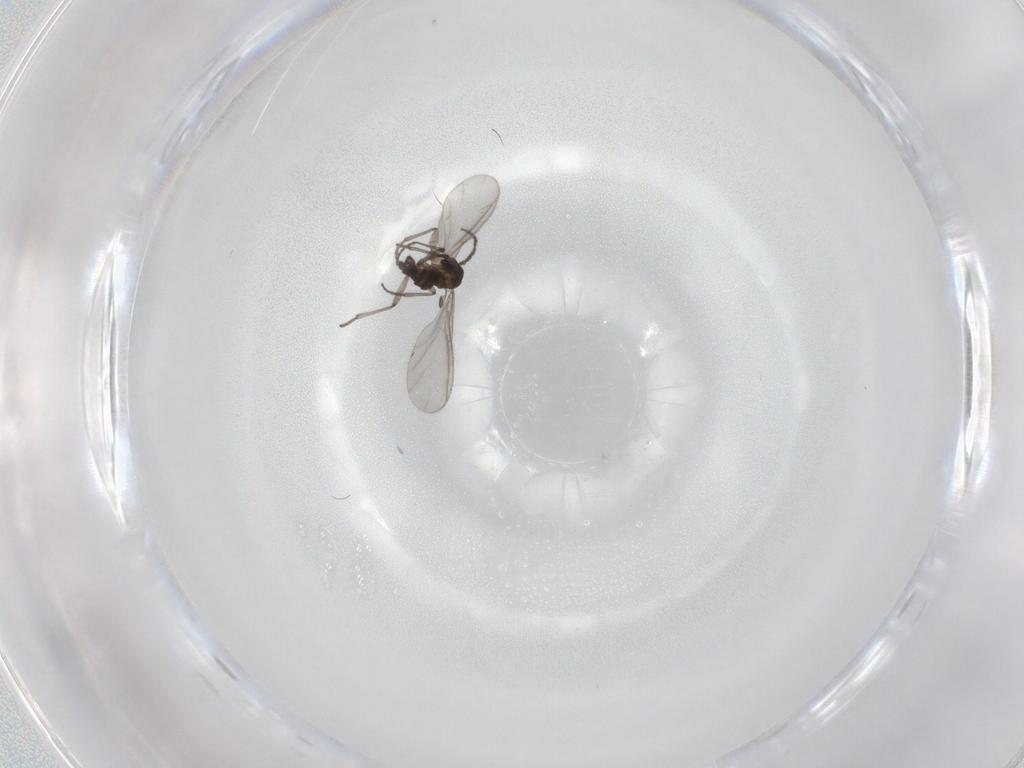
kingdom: Animalia
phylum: Arthropoda
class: Insecta
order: Diptera
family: Sciaridae
